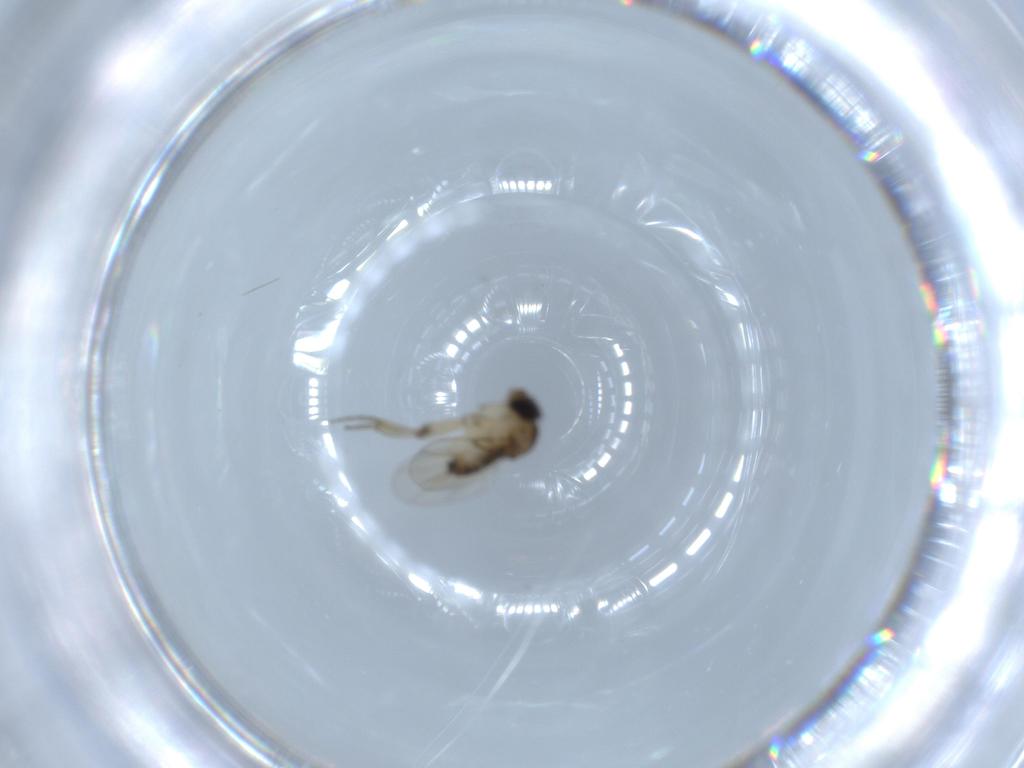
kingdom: Animalia
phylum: Arthropoda
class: Insecta
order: Diptera
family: Phoridae
